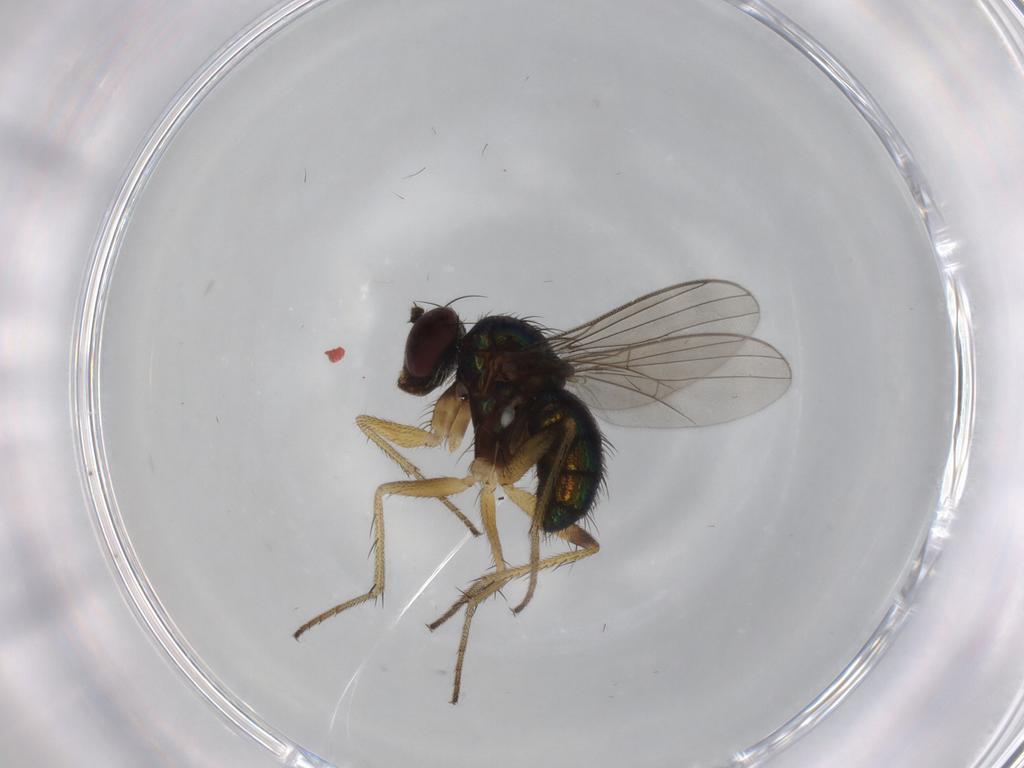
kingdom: Animalia
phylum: Arthropoda
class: Insecta
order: Diptera
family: Dolichopodidae
